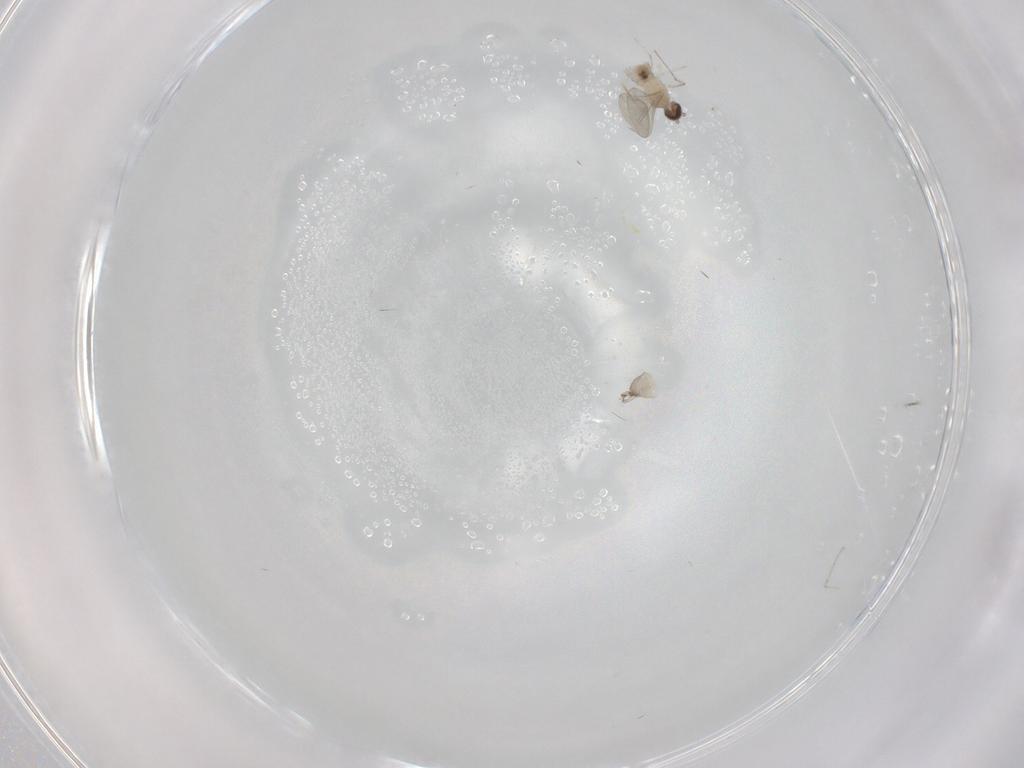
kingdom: Animalia
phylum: Arthropoda
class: Insecta
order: Diptera
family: Cecidomyiidae
